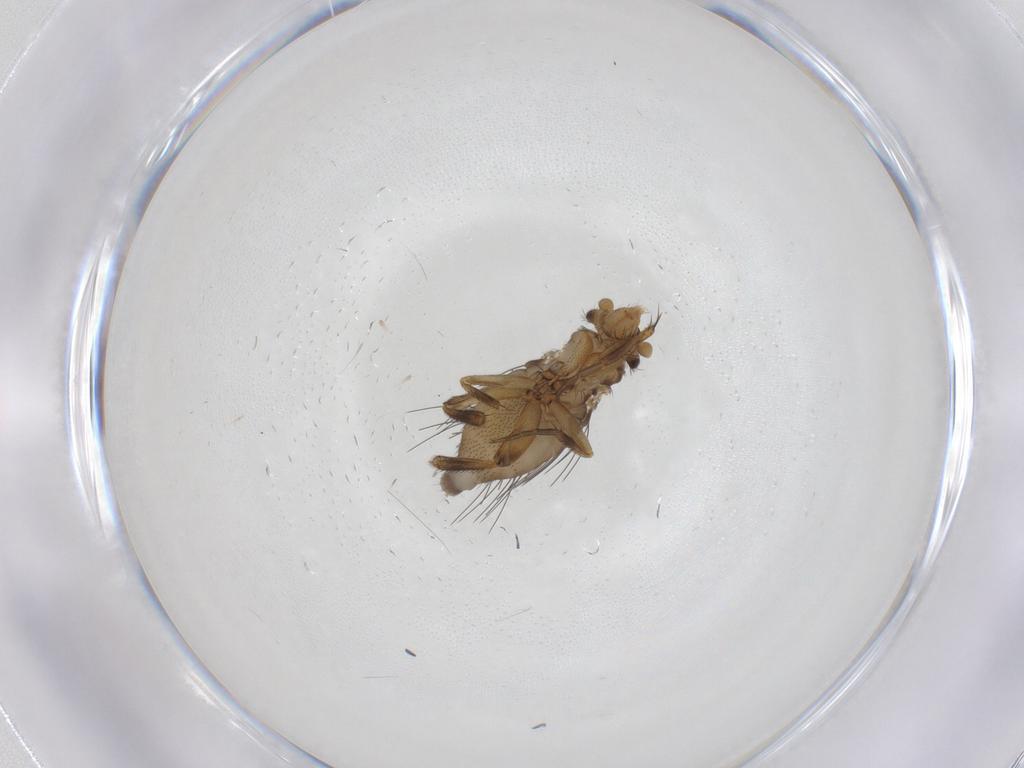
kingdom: Animalia
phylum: Arthropoda
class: Insecta
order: Diptera
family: Phoridae
